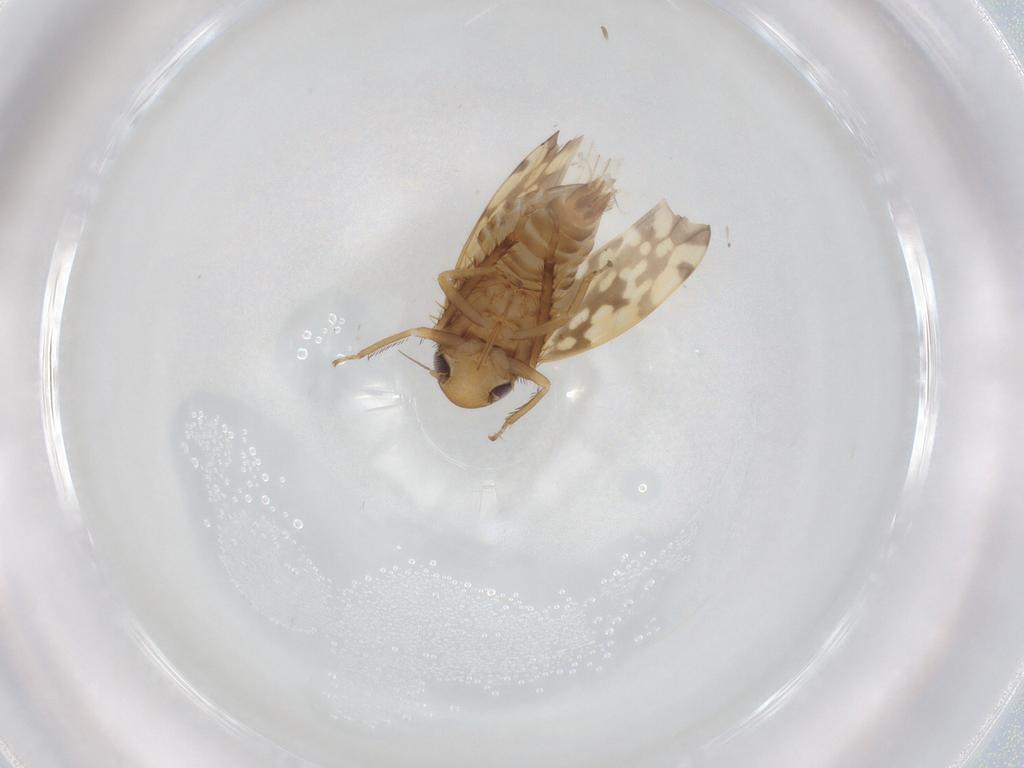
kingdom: Animalia
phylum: Arthropoda
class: Insecta
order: Hemiptera
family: Cicadellidae
